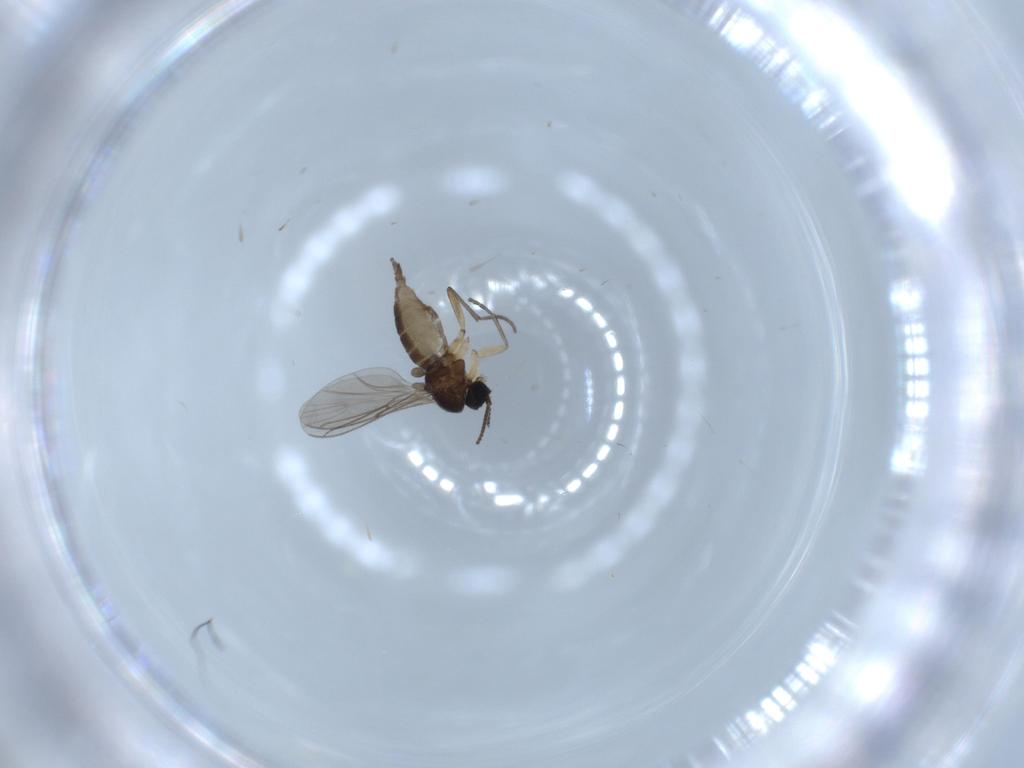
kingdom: Animalia
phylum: Arthropoda
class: Insecta
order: Diptera
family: Sciaridae
